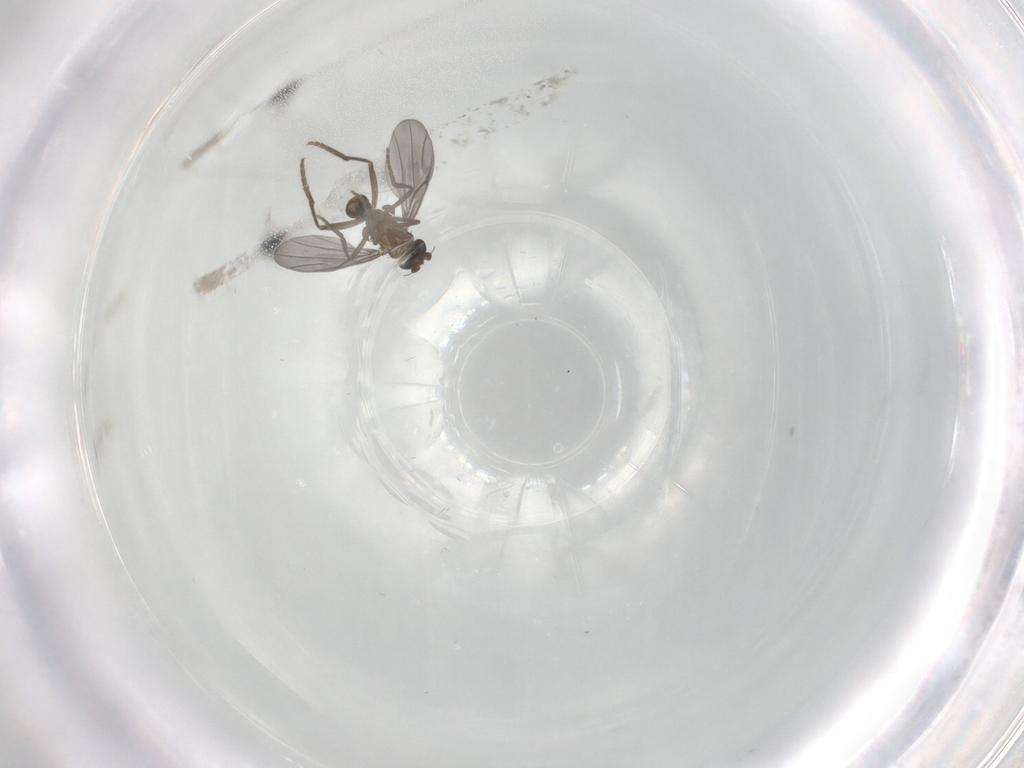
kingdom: Animalia
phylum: Arthropoda
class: Insecta
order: Diptera
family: Phoridae
